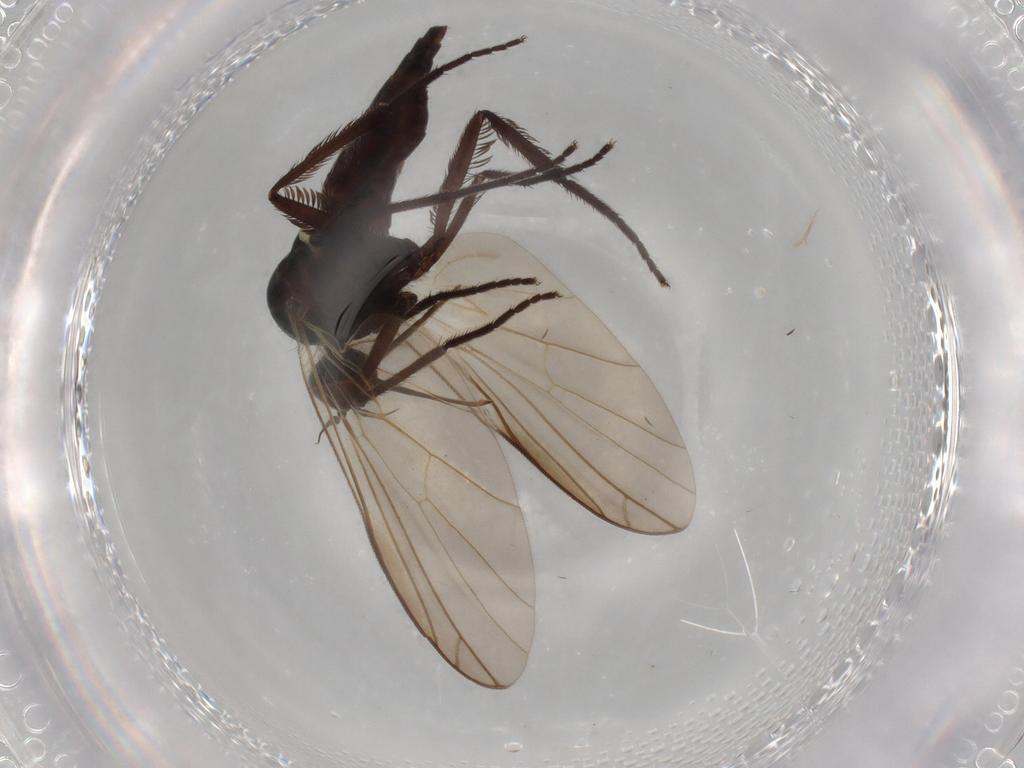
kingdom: Animalia
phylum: Arthropoda
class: Insecta
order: Diptera
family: Empididae
